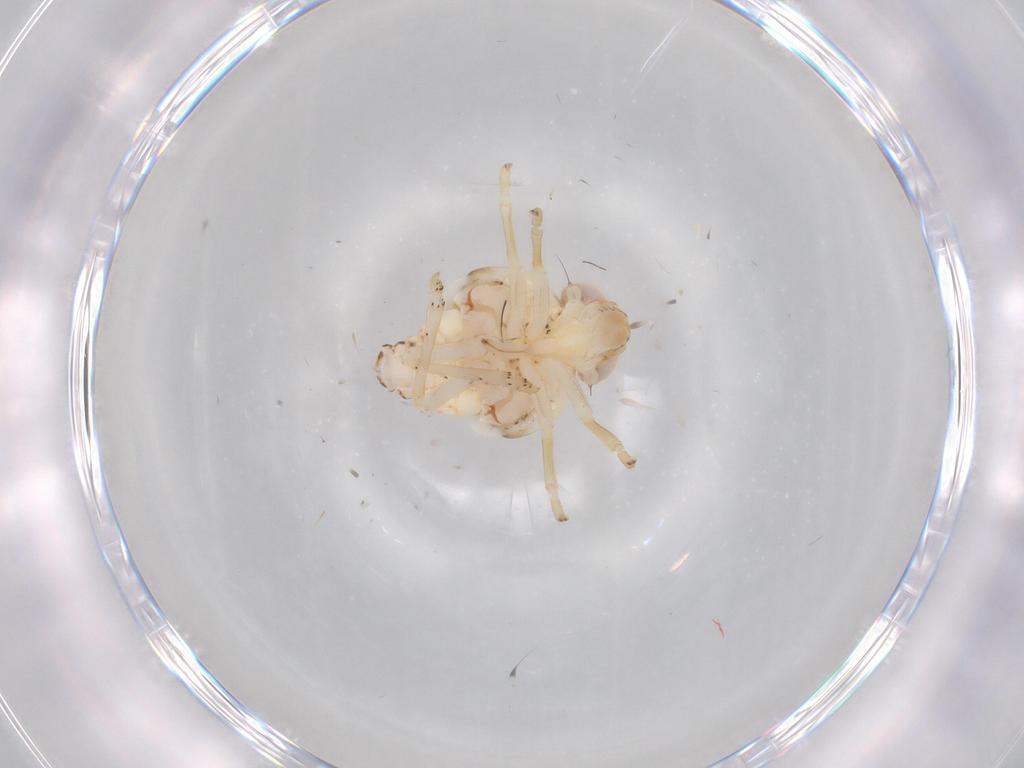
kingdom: Animalia
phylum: Arthropoda
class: Insecta
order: Hemiptera
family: Nogodinidae
